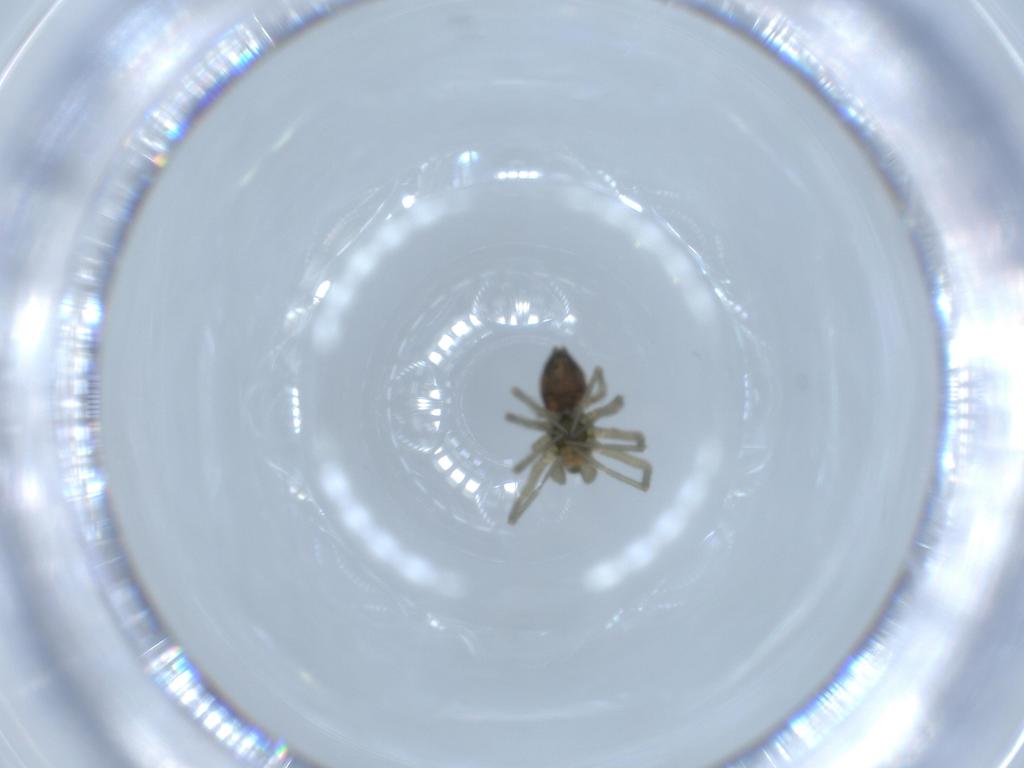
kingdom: Animalia
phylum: Arthropoda
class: Arachnida
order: Araneae
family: Linyphiidae
